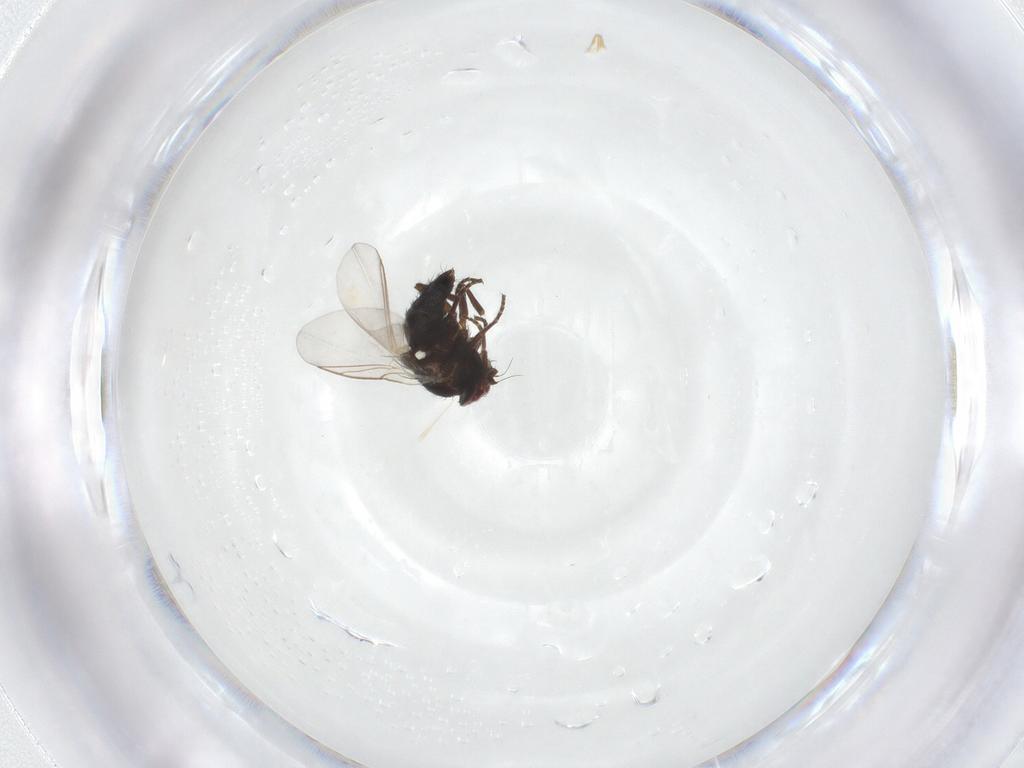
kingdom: Animalia
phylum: Arthropoda
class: Insecta
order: Diptera
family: Agromyzidae
